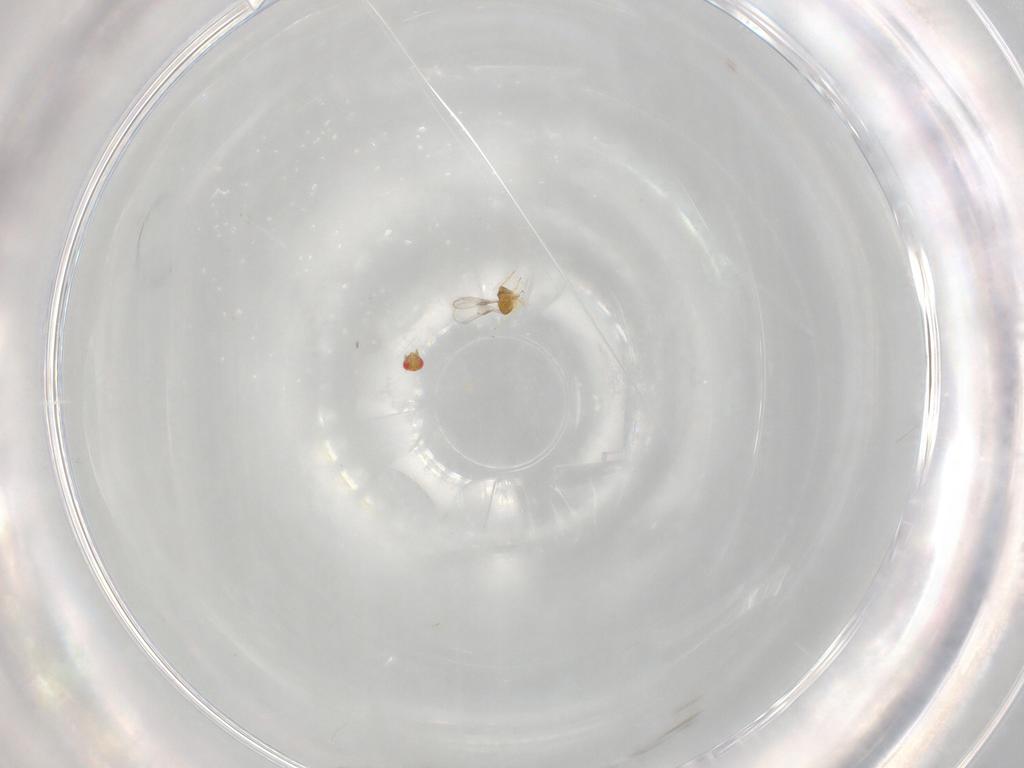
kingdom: Animalia
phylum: Arthropoda
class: Insecta
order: Hymenoptera
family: Trichogrammatidae
